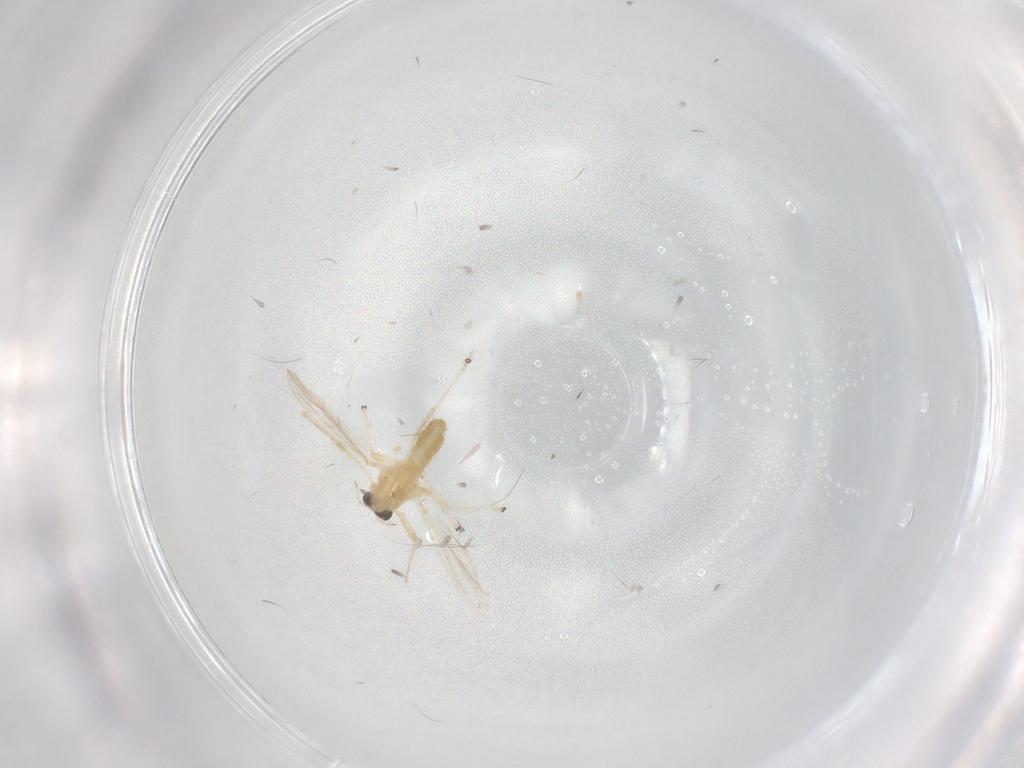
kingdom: Animalia
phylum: Arthropoda
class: Insecta
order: Diptera
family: Chironomidae
